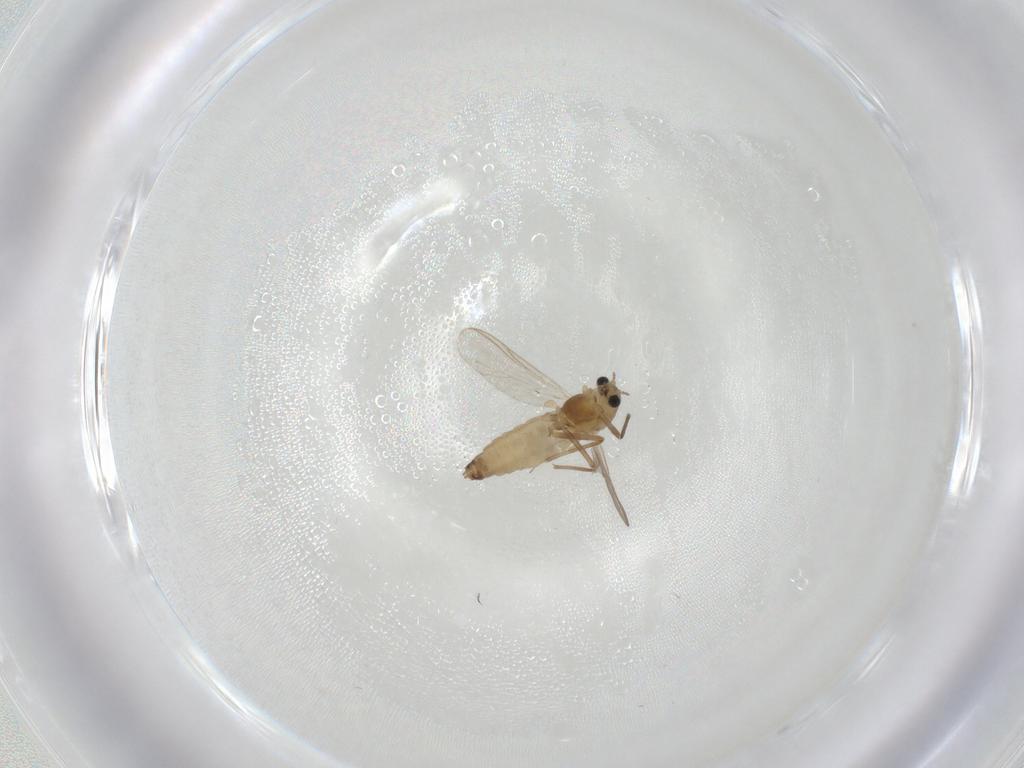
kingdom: Animalia
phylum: Arthropoda
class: Insecta
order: Diptera
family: Chironomidae
